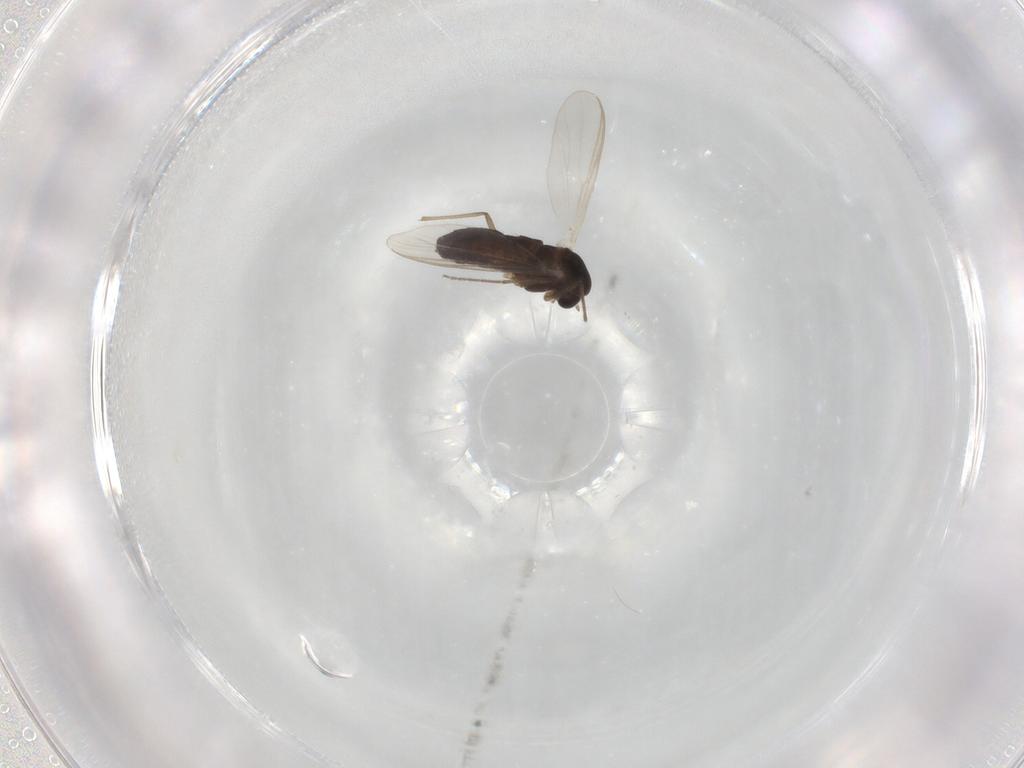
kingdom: Animalia
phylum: Arthropoda
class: Insecta
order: Diptera
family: Chironomidae
